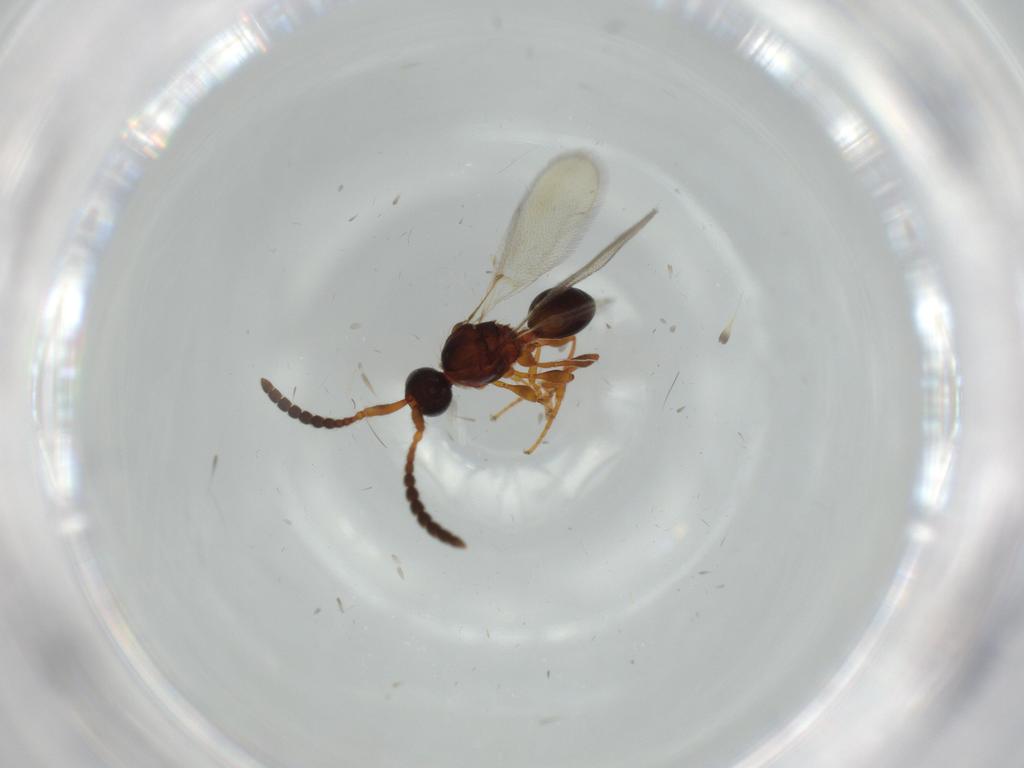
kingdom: Animalia
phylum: Arthropoda
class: Insecta
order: Hymenoptera
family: Diapriidae
